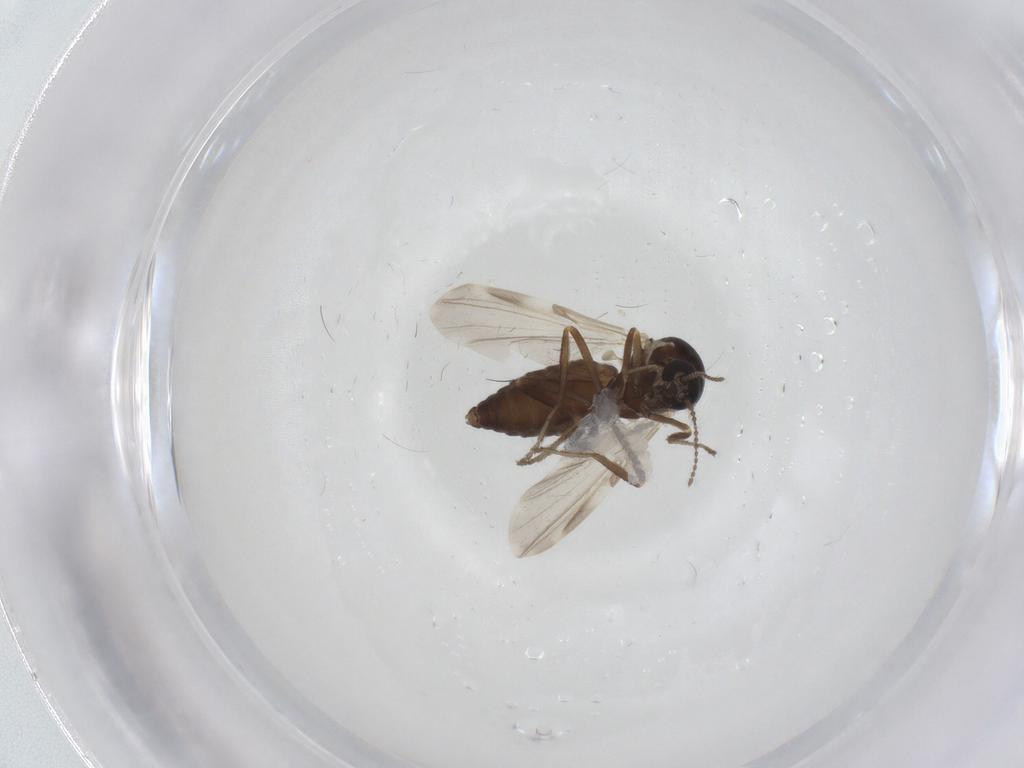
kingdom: Animalia
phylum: Arthropoda
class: Insecta
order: Diptera
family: Ceratopogonidae
